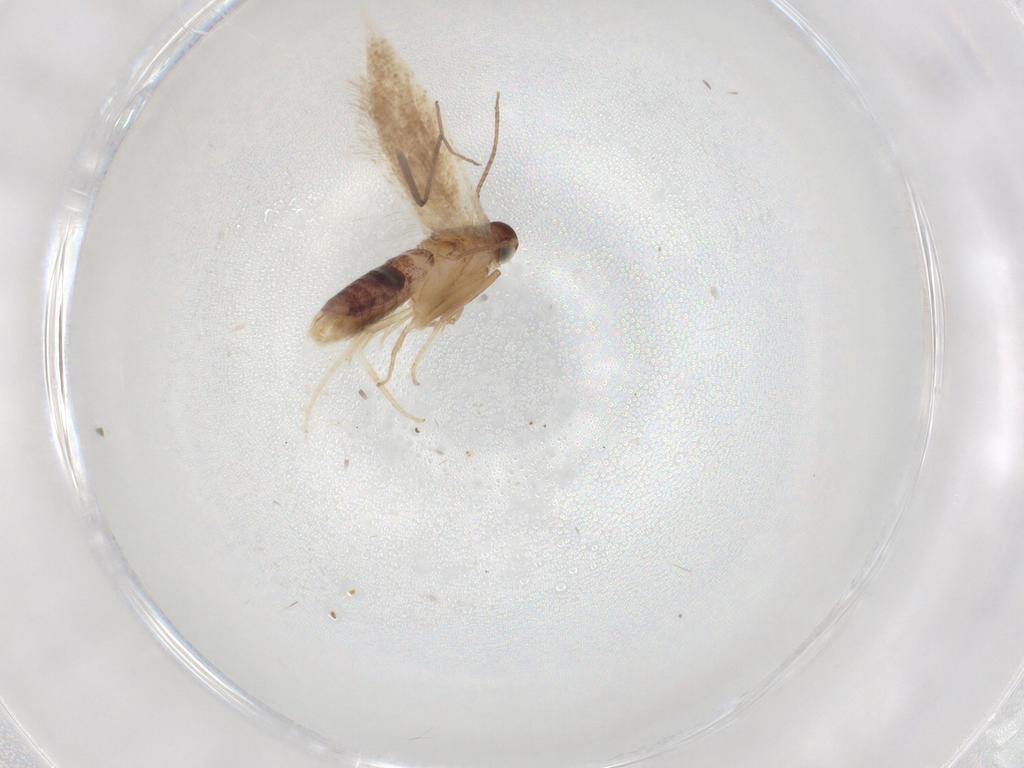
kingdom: Animalia
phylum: Arthropoda
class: Insecta
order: Lepidoptera
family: Gelechiidae
